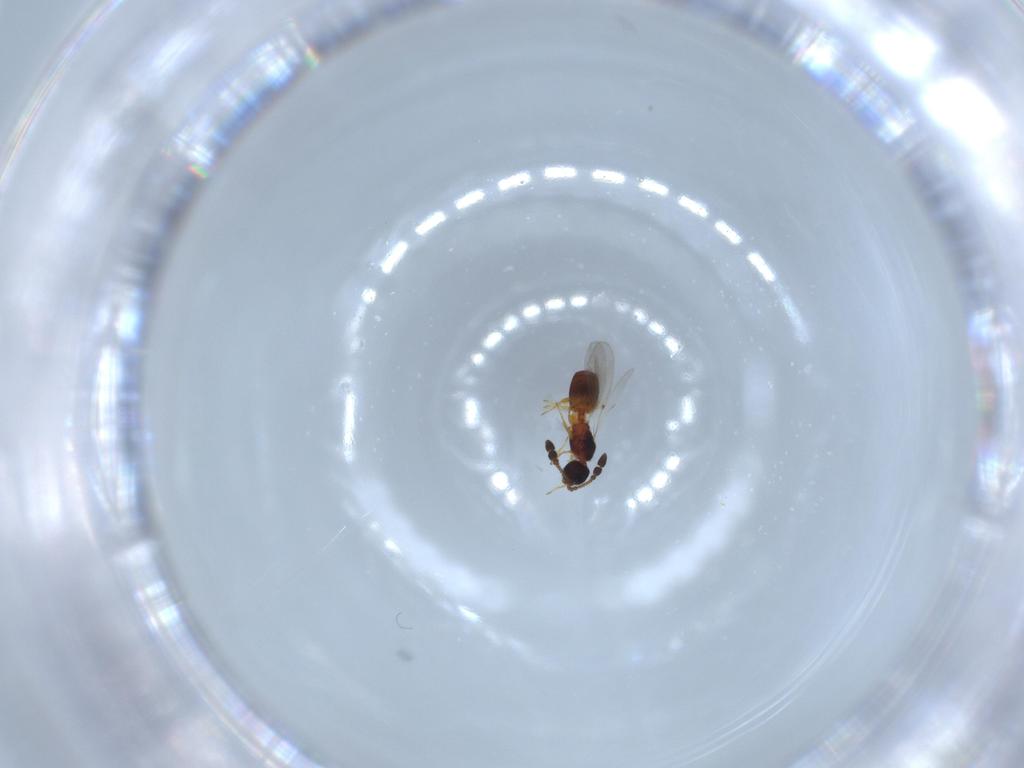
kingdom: Animalia
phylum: Arthropoda
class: Insecta
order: Hymenoptera
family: Diapriidae
